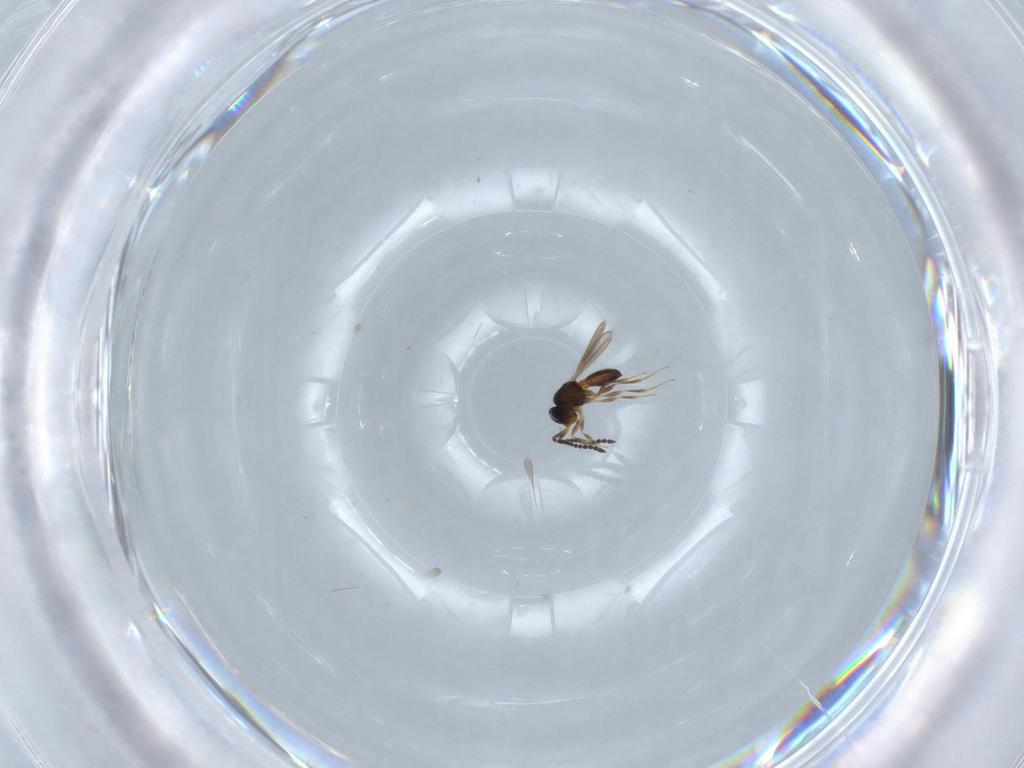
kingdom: Animalia
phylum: Arthropoda
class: Insecta
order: Hymenoptera
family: Scelionidae
